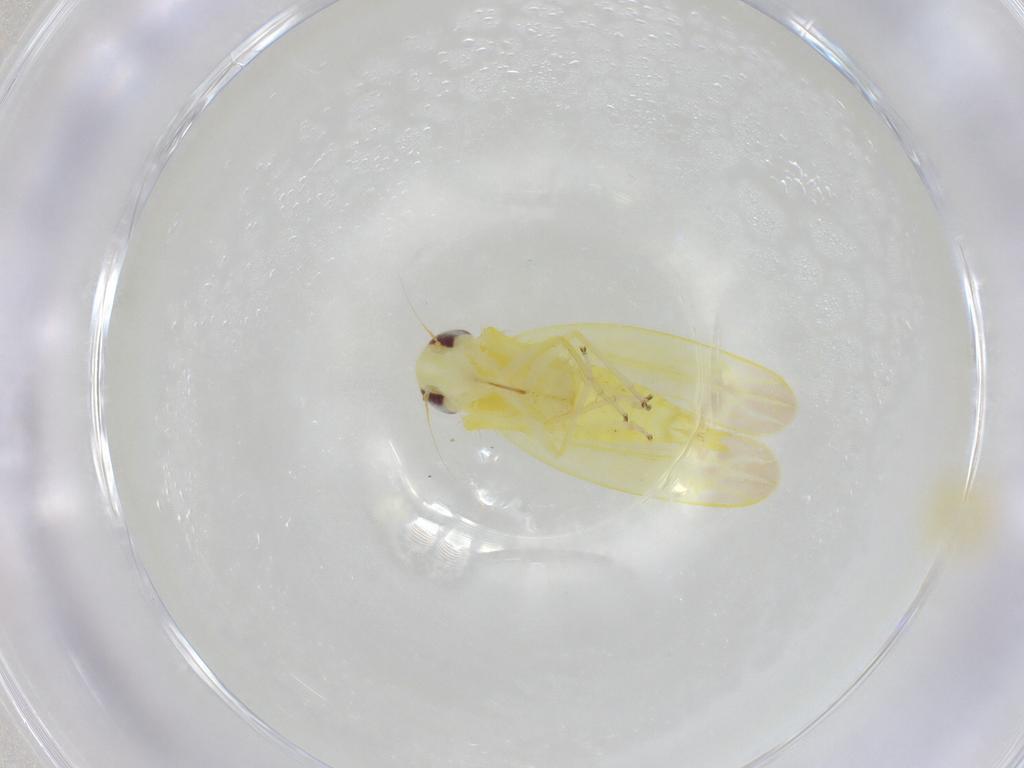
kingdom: Animalia
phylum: Arthropoda
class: Insecta
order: Hemiptera
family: Cicadellidae
